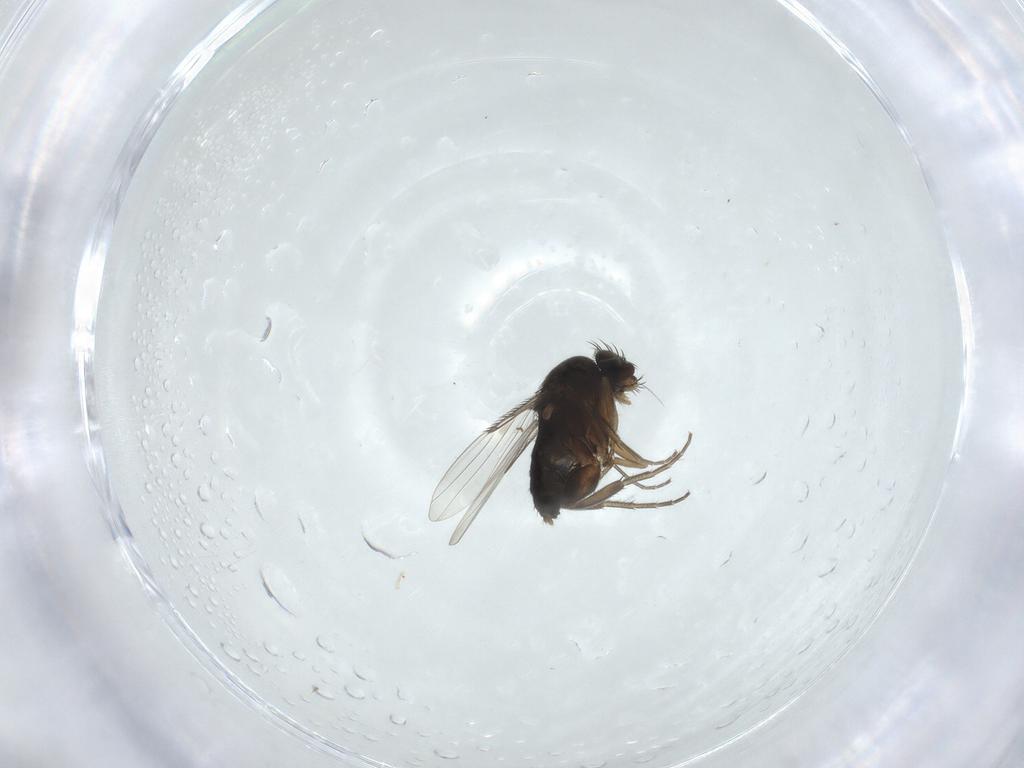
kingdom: Animalia
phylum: Arthropoda
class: Insecta
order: Diptera
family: Phoridae
